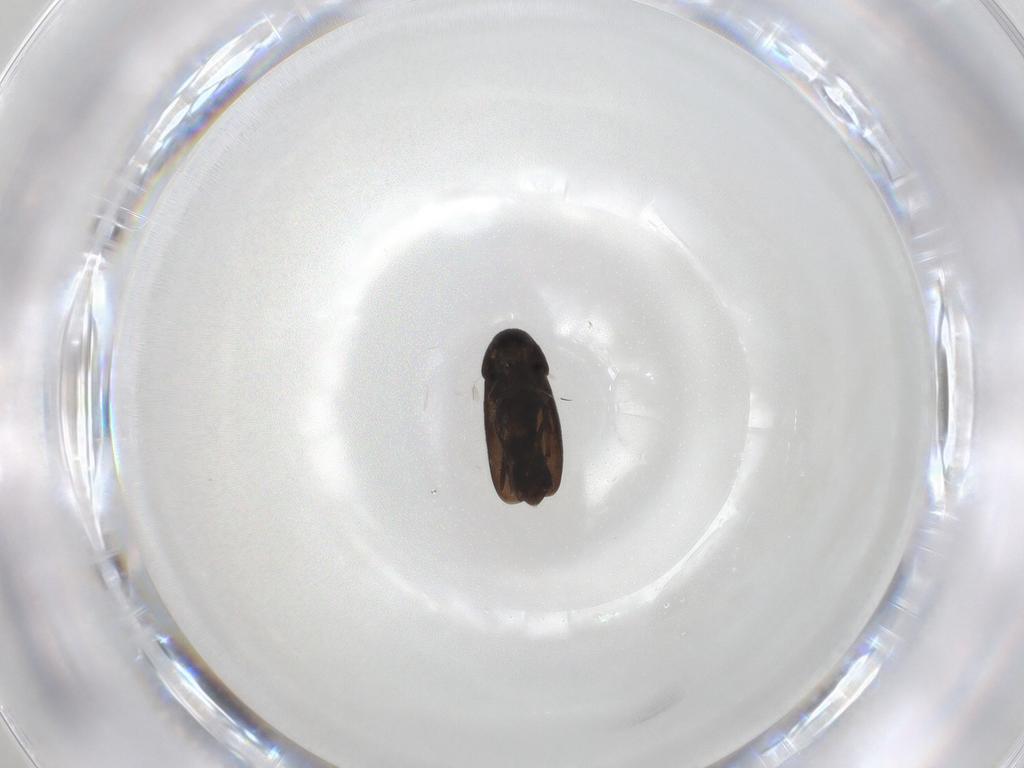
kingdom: Animalia
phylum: Arthropoda
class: Insecta
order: Coleoptera
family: Scraptiidae
